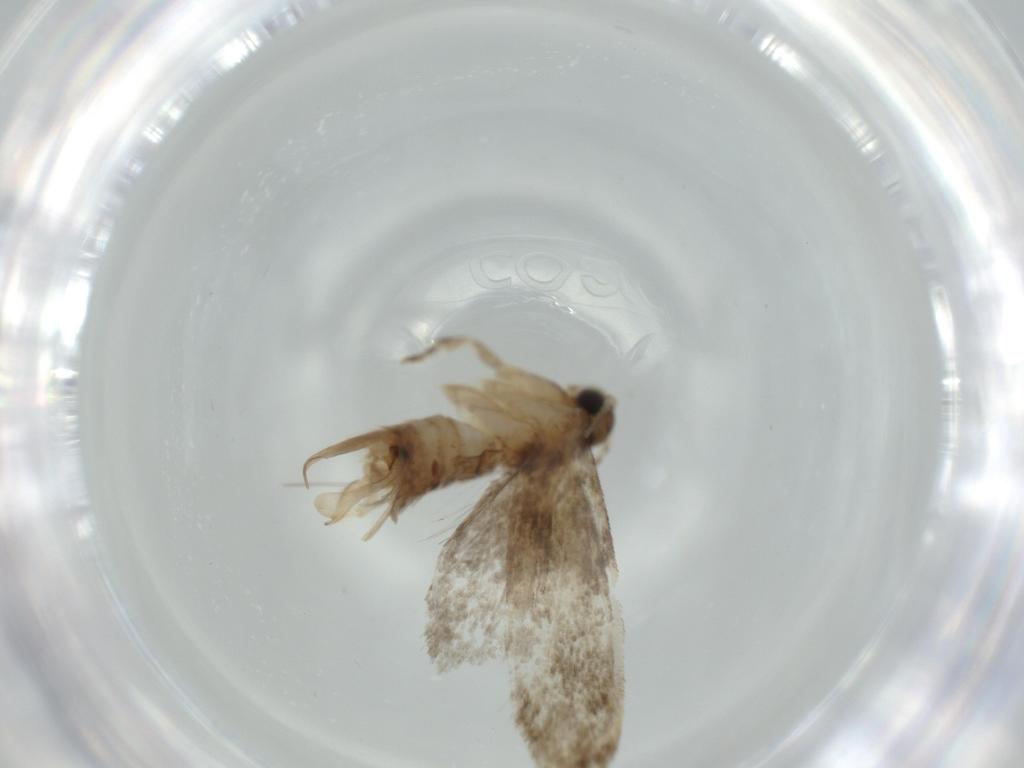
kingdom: Animalia
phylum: Arthropoda
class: Insecta
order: Lepidoptera
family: Tineidae
